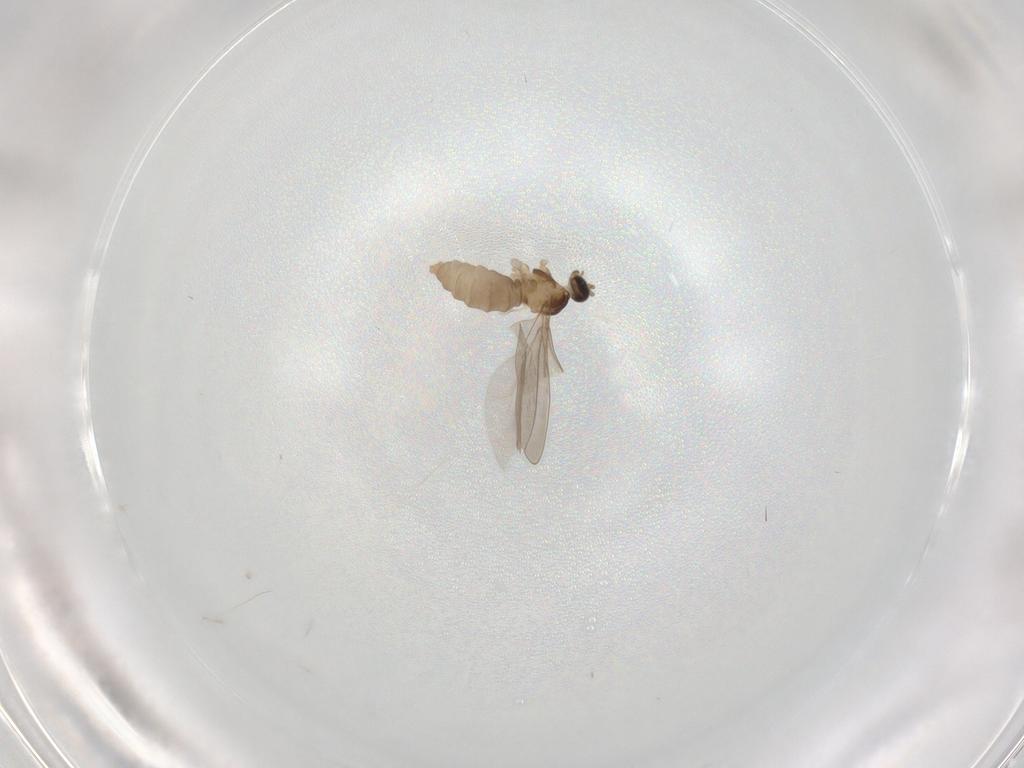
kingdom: Animalia
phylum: Arthropoda
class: Insecta
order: Diptera
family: Cecidomyiidae
